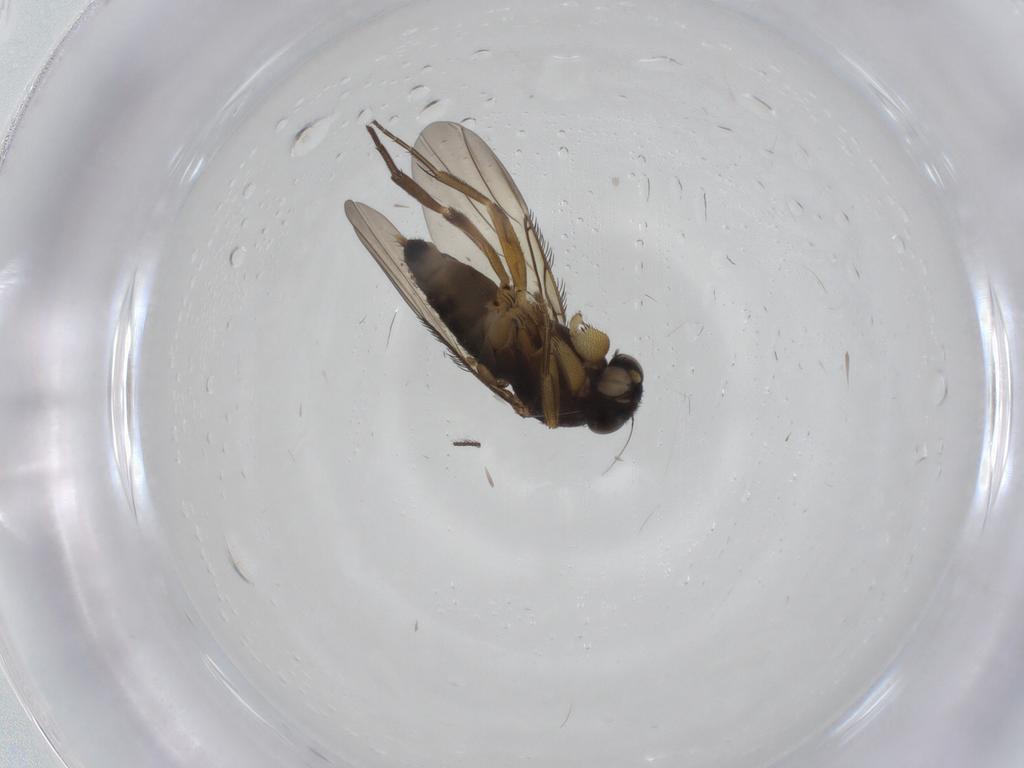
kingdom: Animalia
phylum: Arthropoda
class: Insecta
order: Diptera
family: Phoridae
